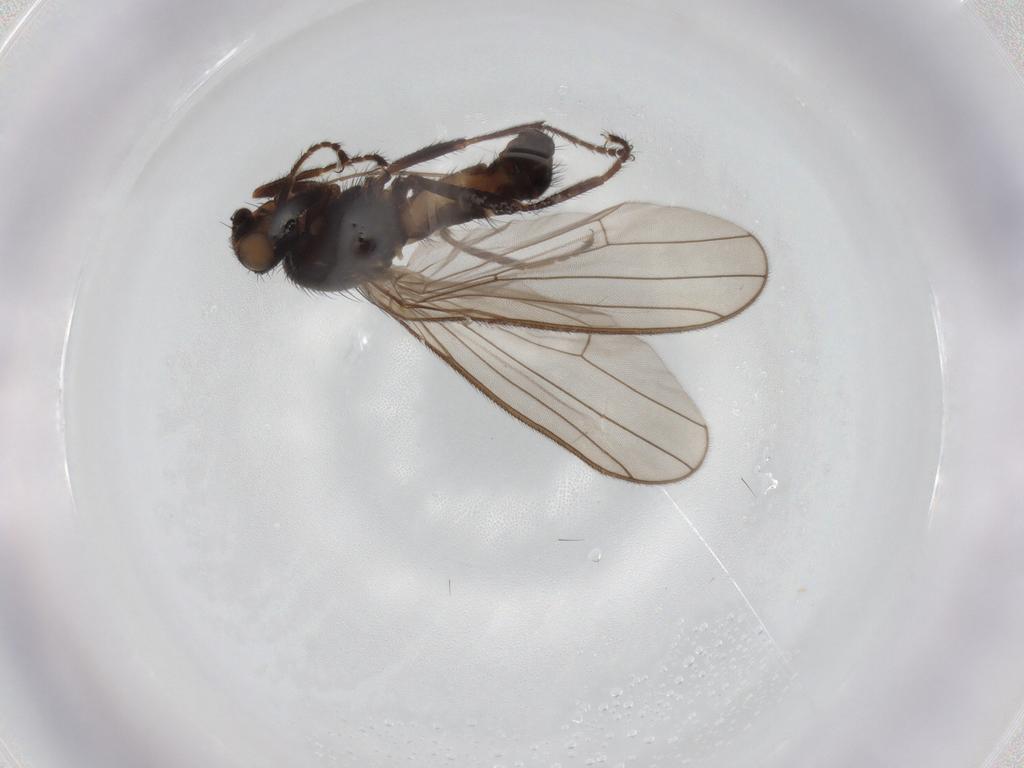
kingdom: Animalia
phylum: Arthropoda
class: Insecta
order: Diptera
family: Heleomyzidae
